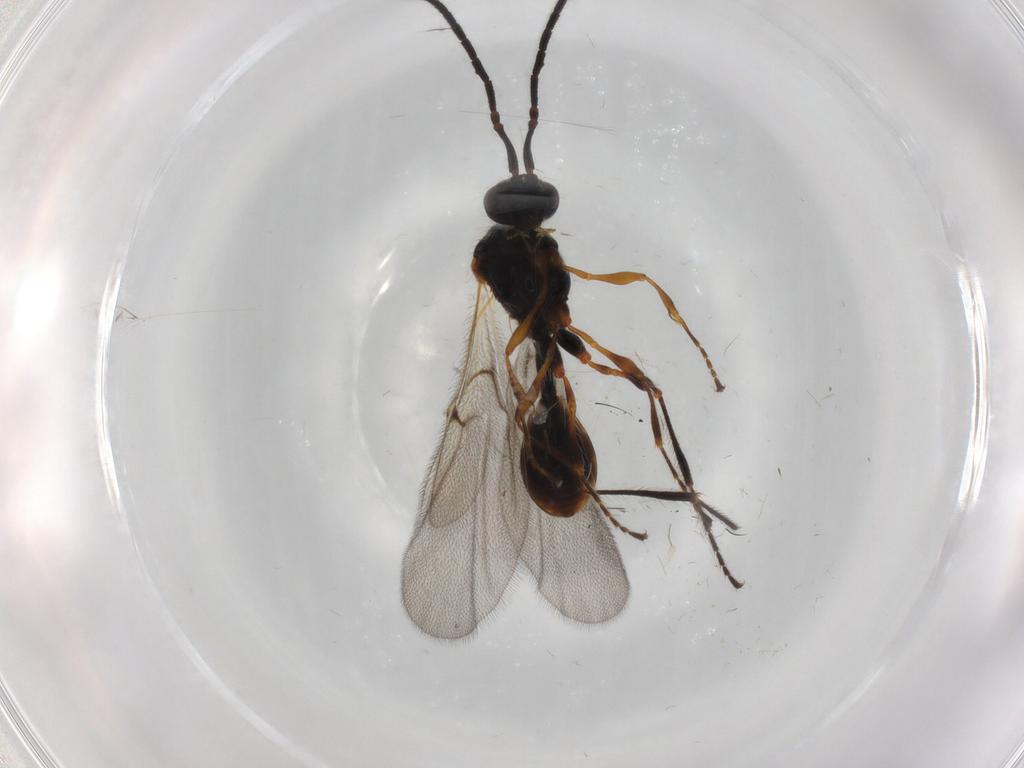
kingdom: Animalia
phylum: Arthropoda
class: Insecta
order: Hymenoptera
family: Diapriidae
